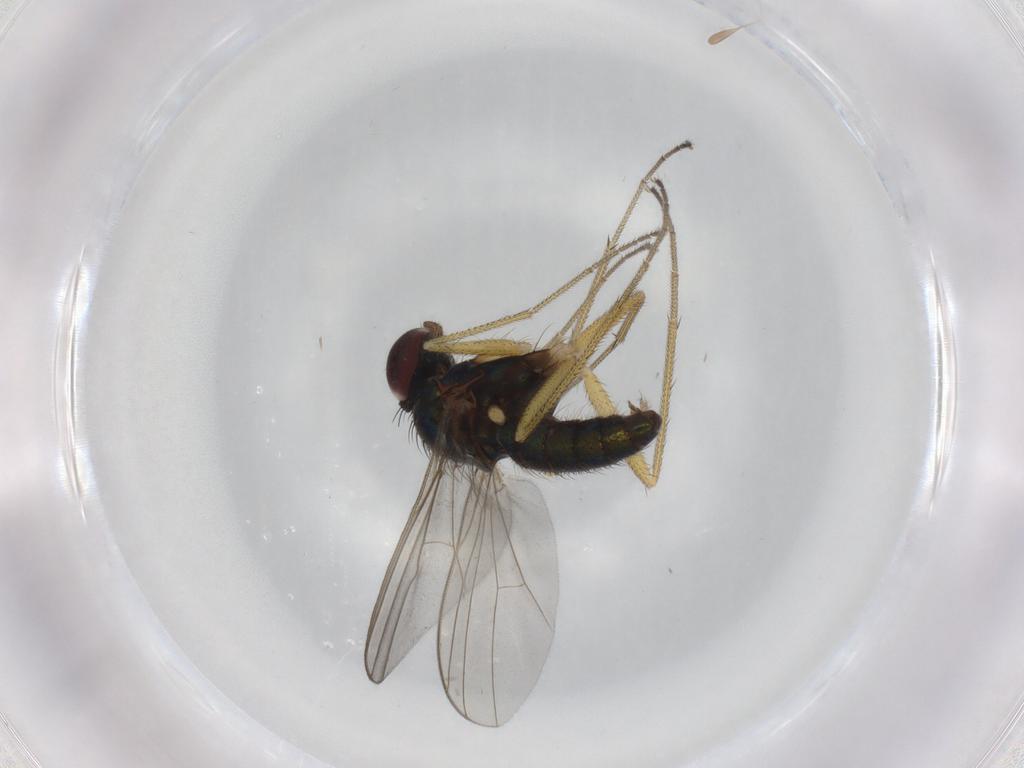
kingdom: Animalia
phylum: Arthropoda
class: Insecta
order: Diptera
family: Dolichopodidae
